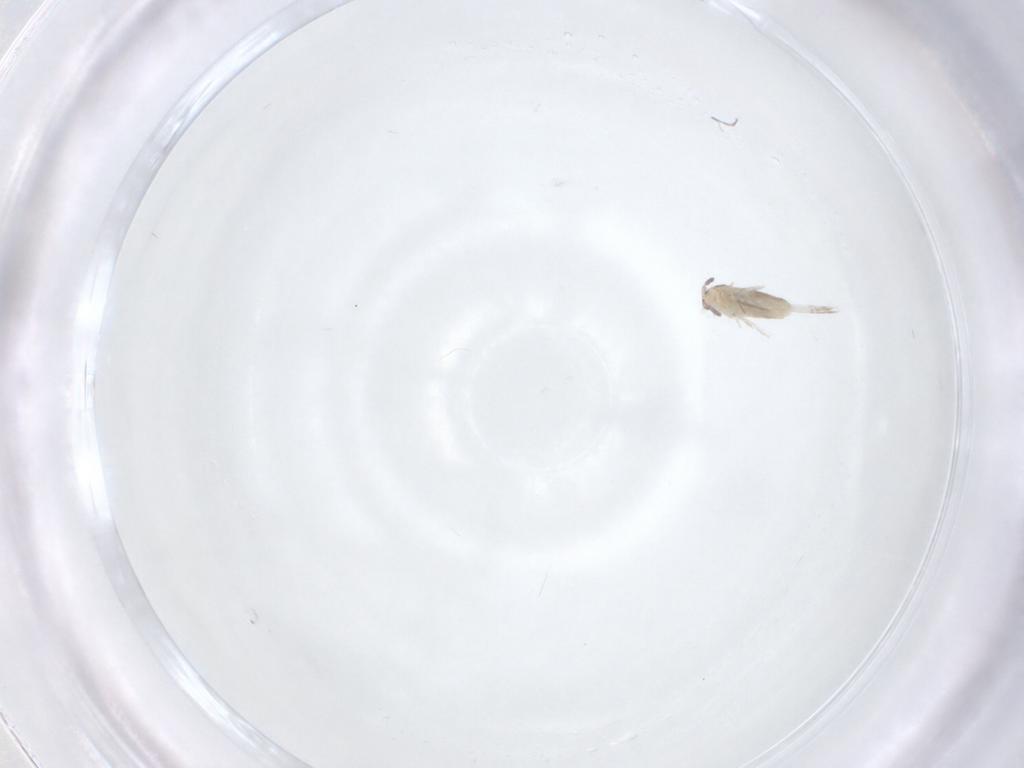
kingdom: Animalia
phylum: Arthropoda
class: Collembola
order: Entomobryomorpha
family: Entomobryidae
